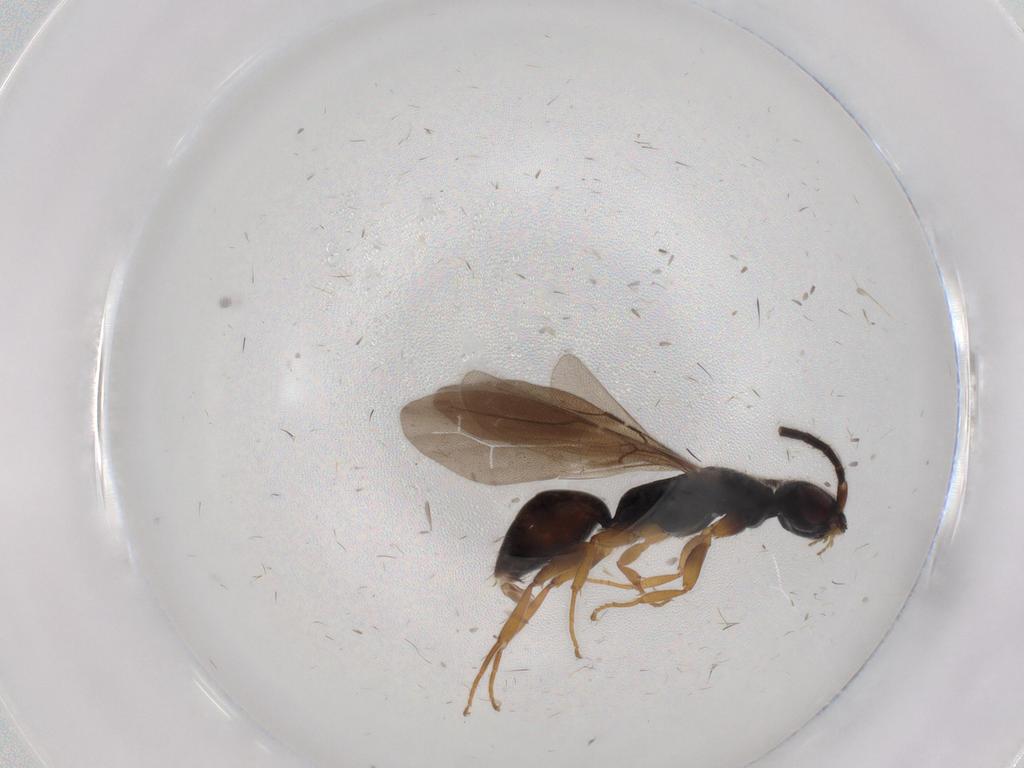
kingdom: Animalia
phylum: Arthropoda
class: Insecta
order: Hymenoptera
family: Bethylidae
